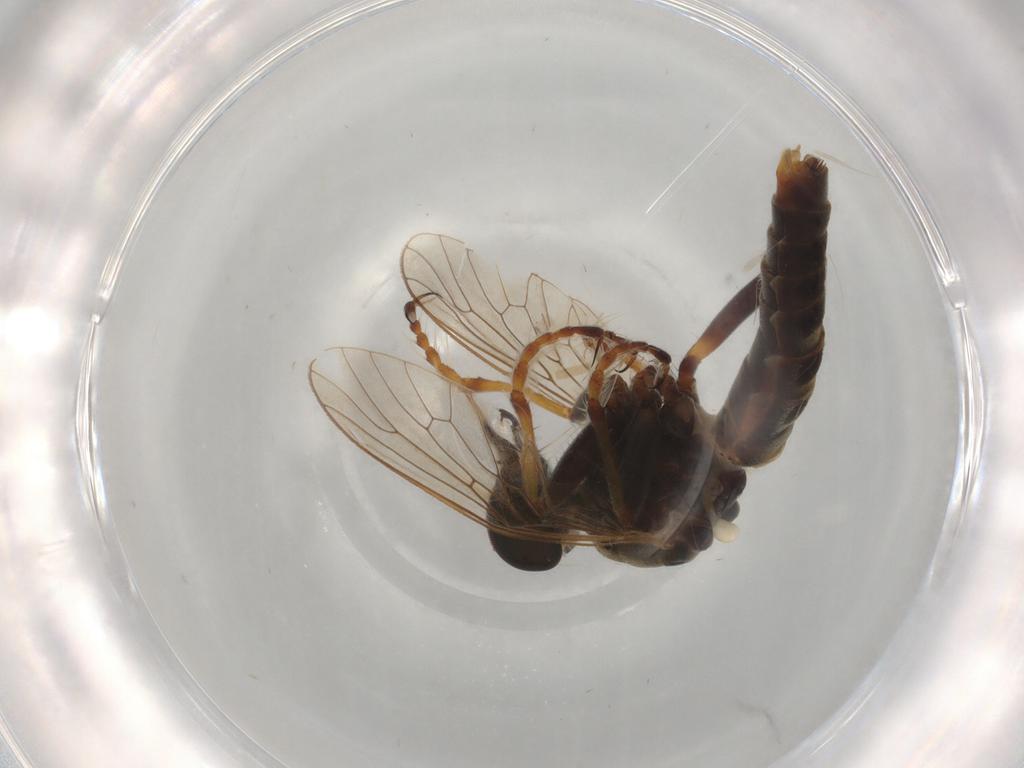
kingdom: Animalia
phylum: Arthropoda
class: Insecta
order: Diptera
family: Asilidae
